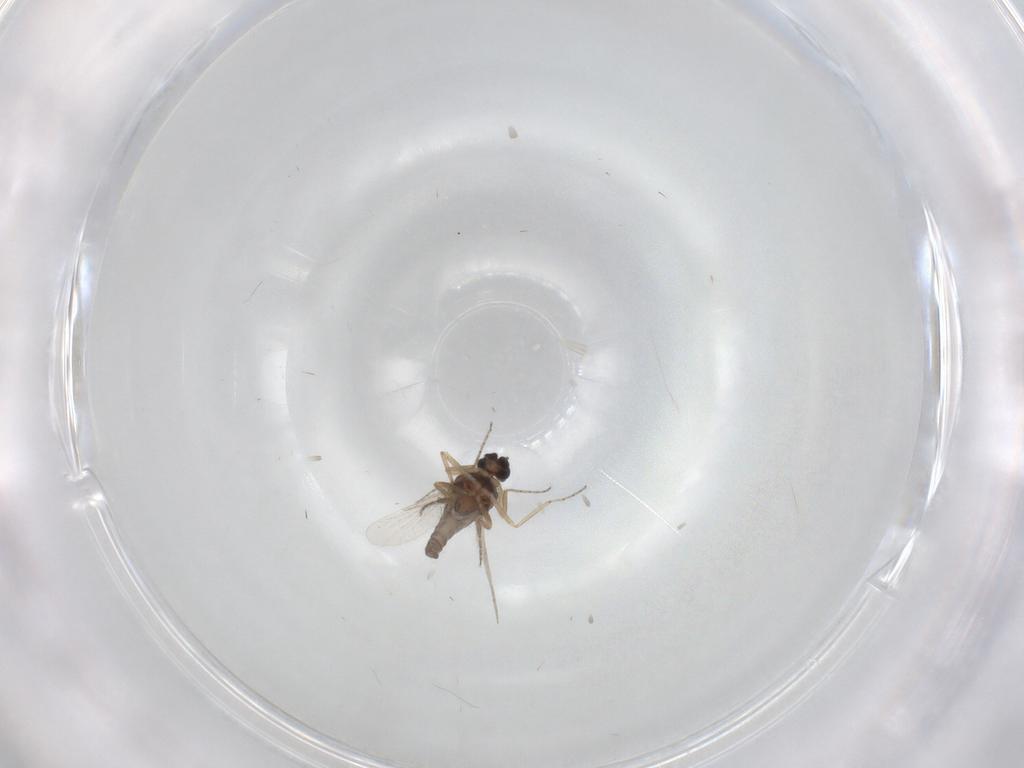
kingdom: Animalia
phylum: Arthropoda
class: Insecta
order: Diptera
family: Ceratopogonidae
